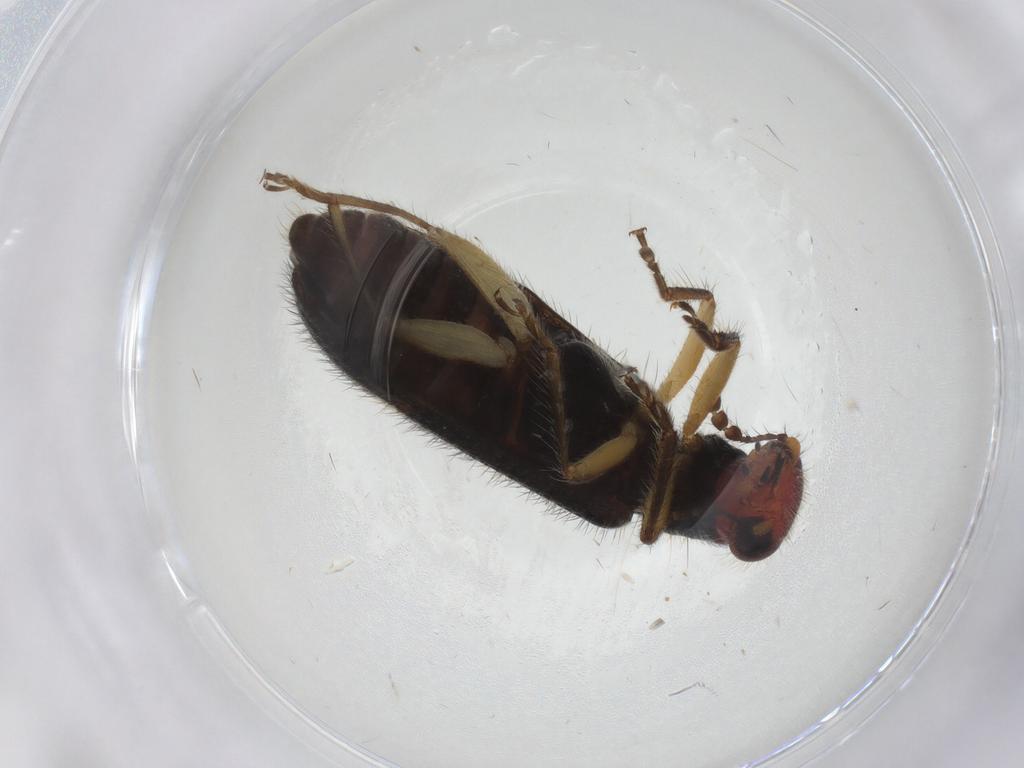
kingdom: Animalia
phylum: Arthropoda
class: Insecta
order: Coleoptera
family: Cleridae
